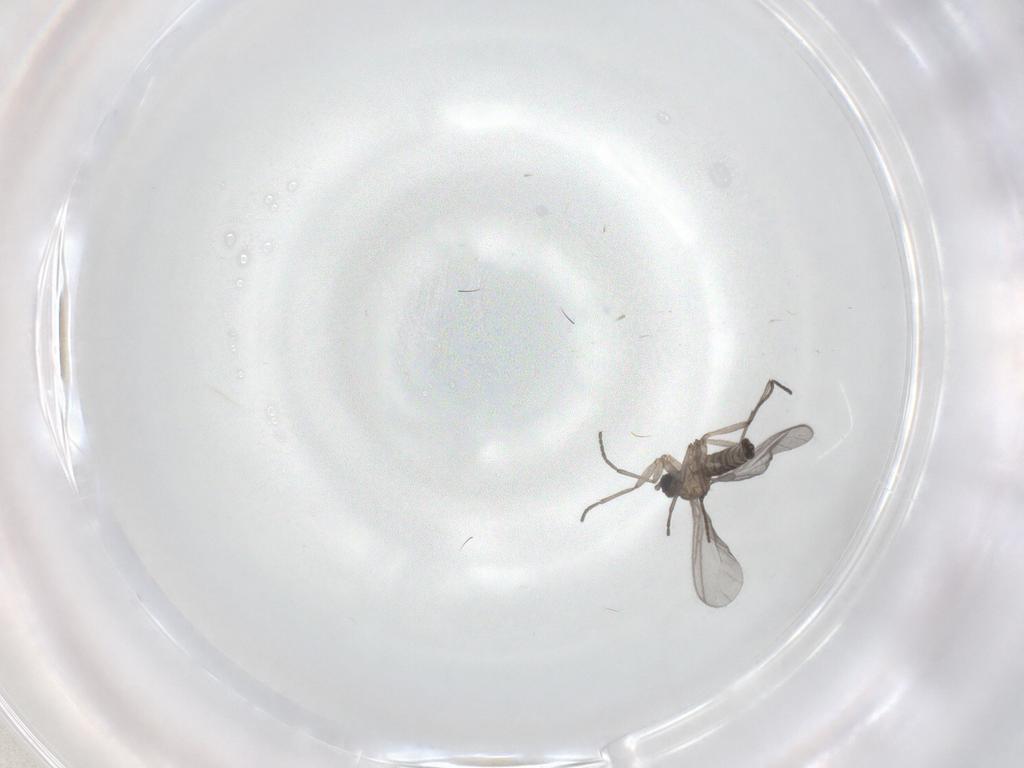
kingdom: Animalia
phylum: Arthropoda
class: Insecta
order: Diptera
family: Sciaridae
